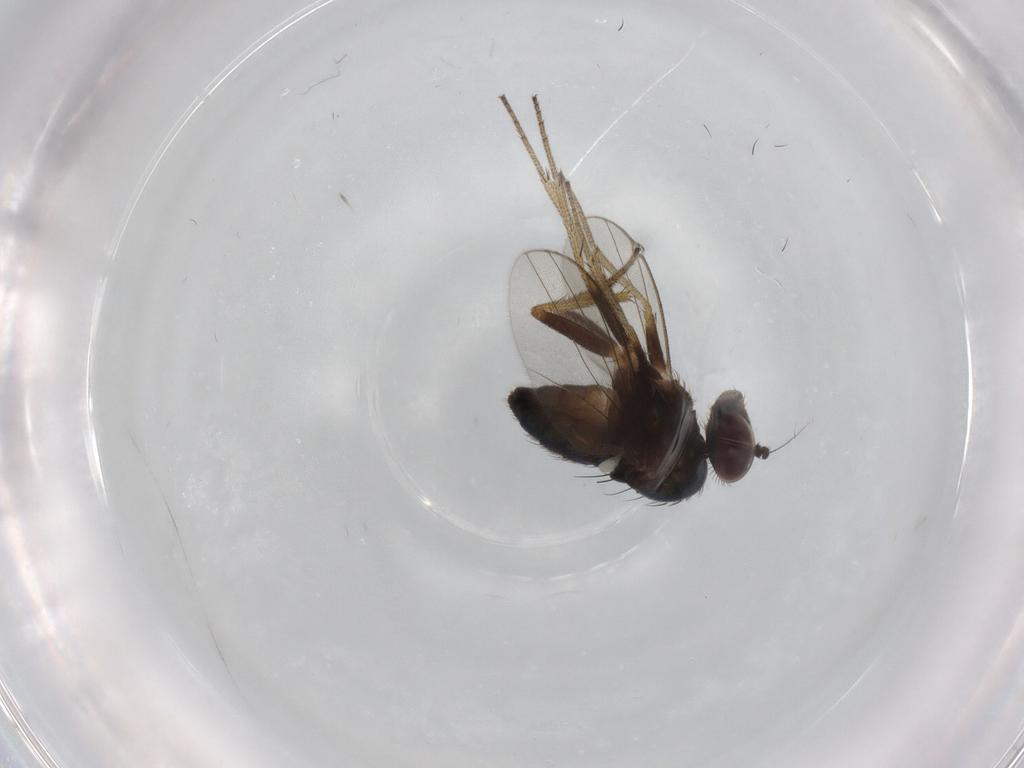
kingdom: Animalia
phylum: Arthropoda
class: Insecta
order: Diptera
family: Dolichopodidae
